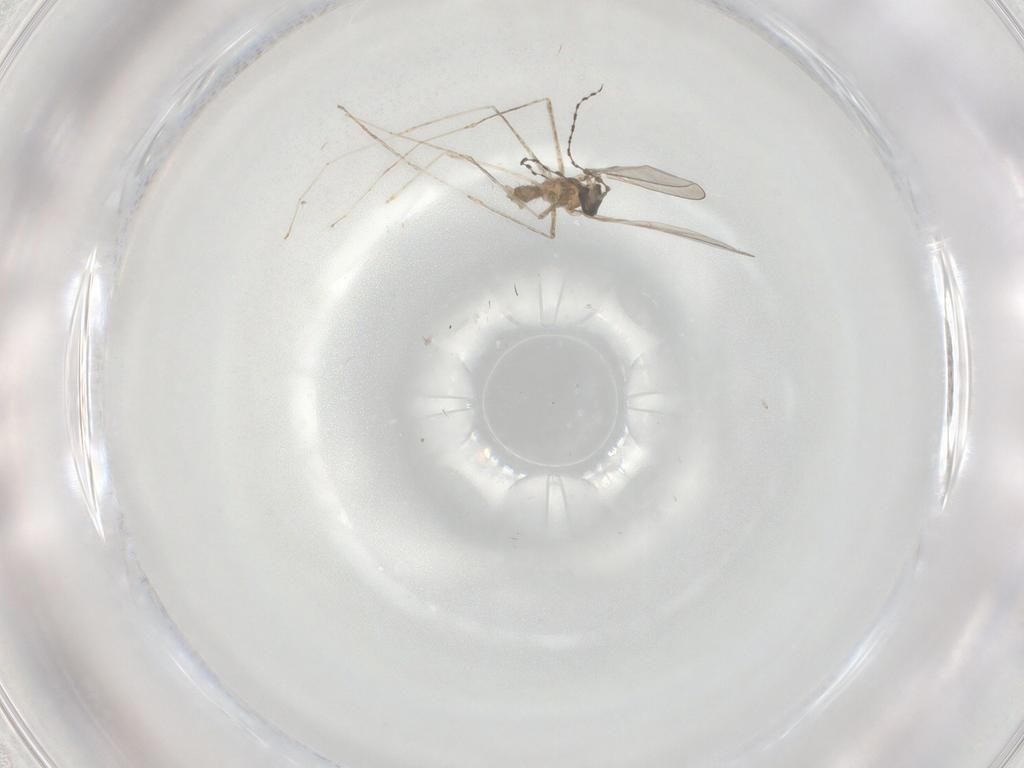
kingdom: Animalia
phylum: Arthropoda
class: Insecta
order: Diptera
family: Cecidomyiidae
